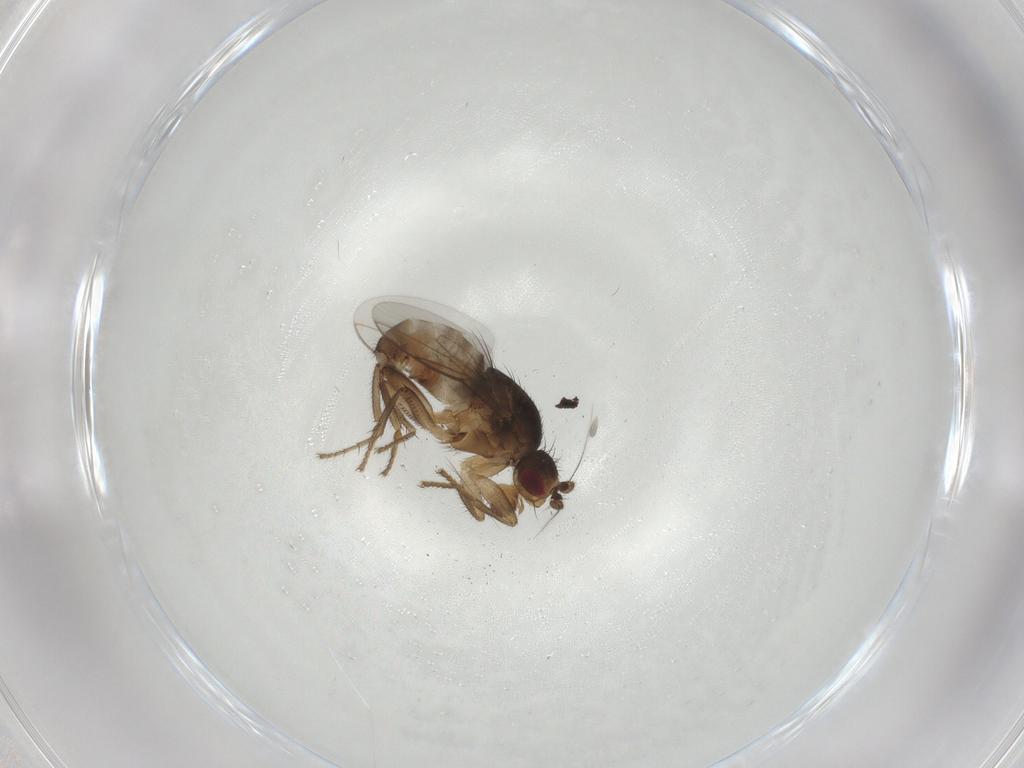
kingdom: Animalia
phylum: Arthropoda
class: Insecta
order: Diptera
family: Sphaeroceridae
